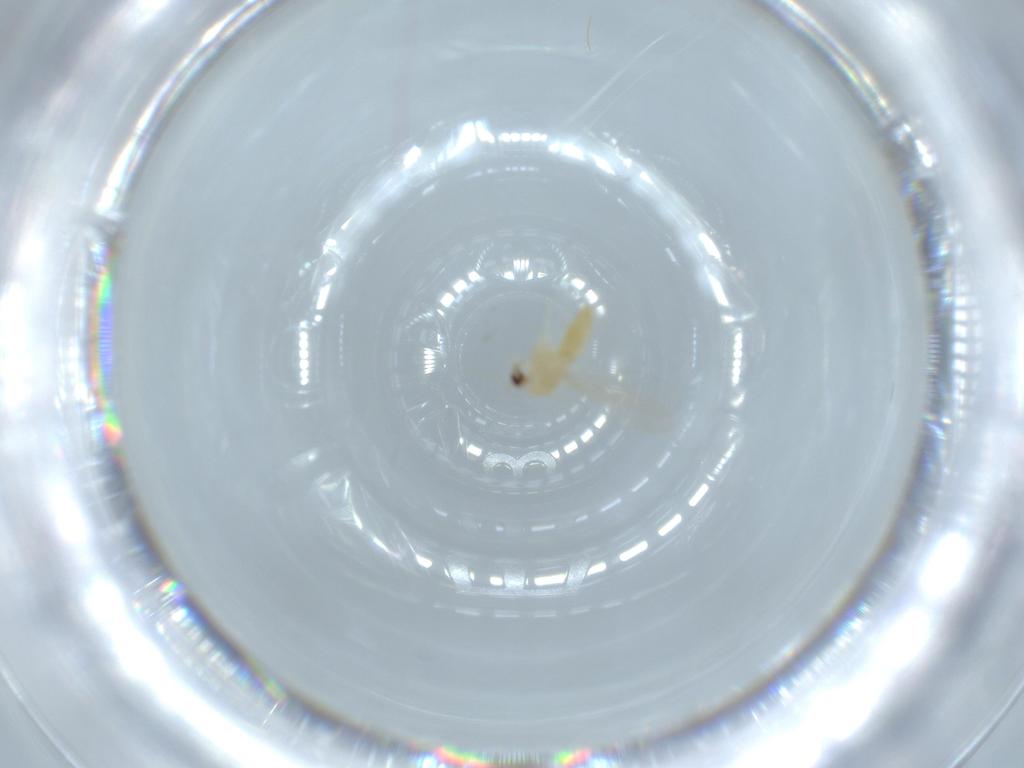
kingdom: Animalia
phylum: Arthropoda
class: Insecta
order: Diptera
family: Chironomidae
